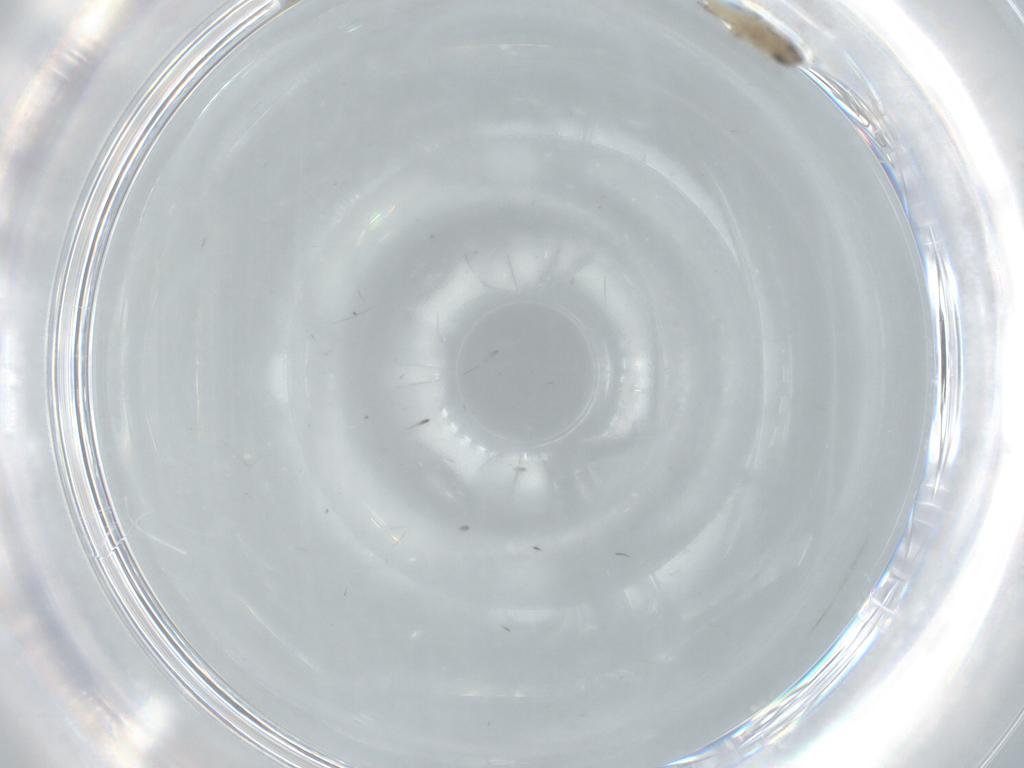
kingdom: Animalia
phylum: Arthropoda
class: Insecta
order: Diptera
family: Cecidomyiidae
